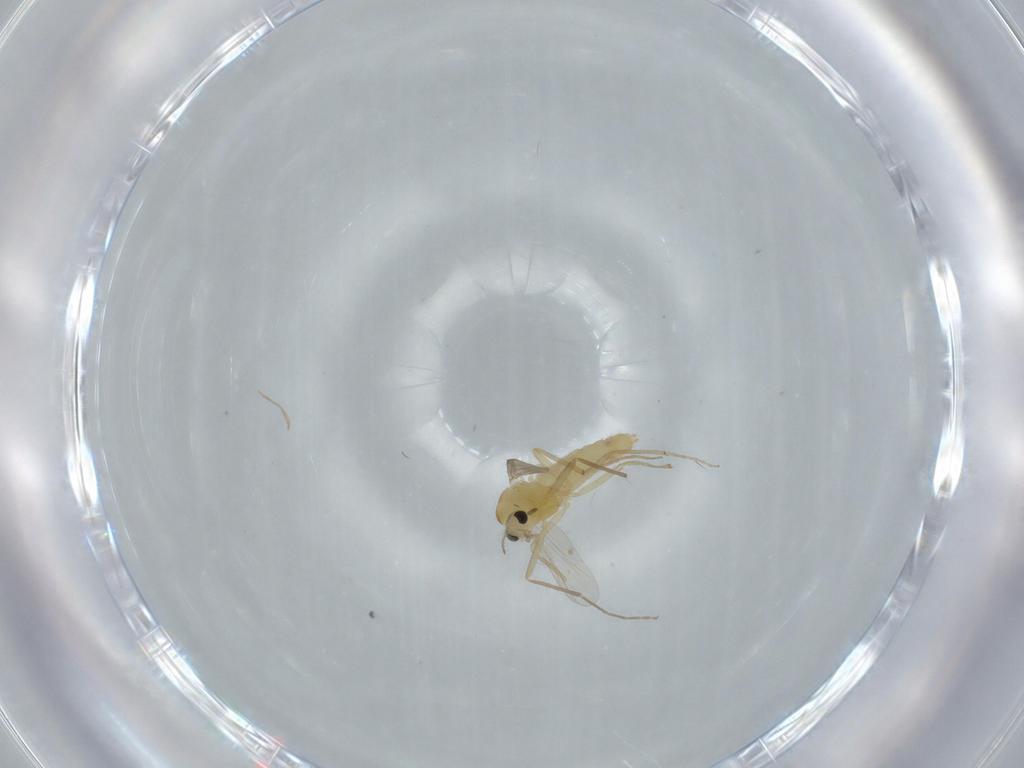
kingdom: Animalia
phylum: Arthropoda
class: Insecta
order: Diptera
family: Chironomidae
